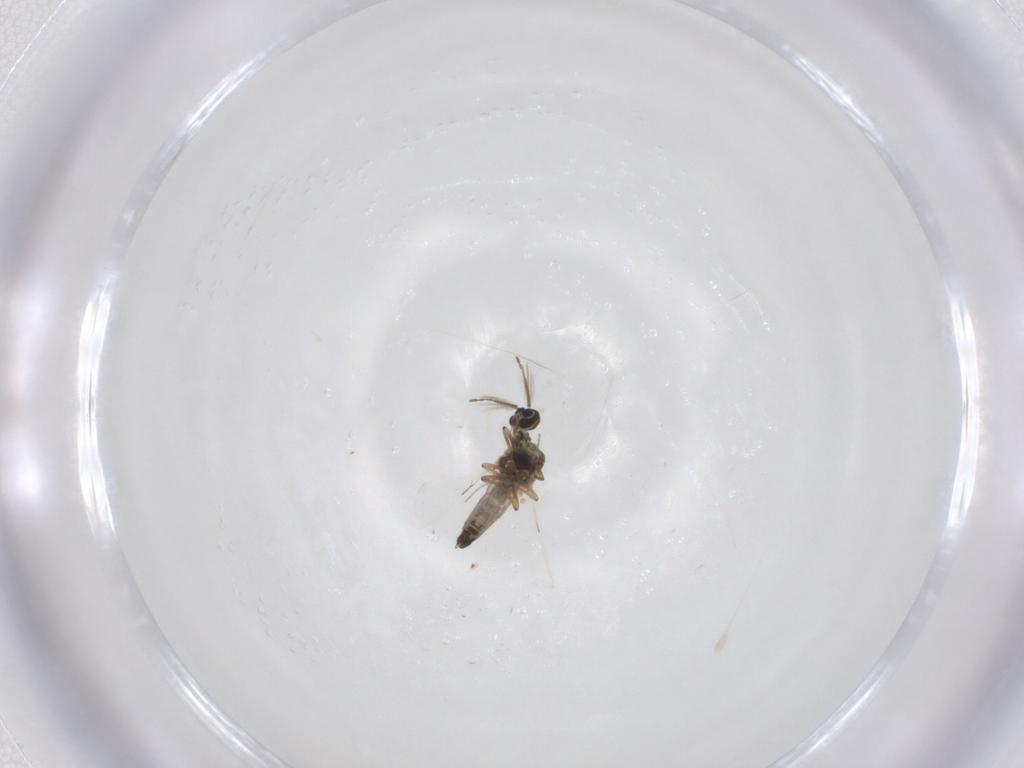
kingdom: Animalia
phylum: Arthropoda
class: Insecta
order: Diptera
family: Ceratopogonidae
